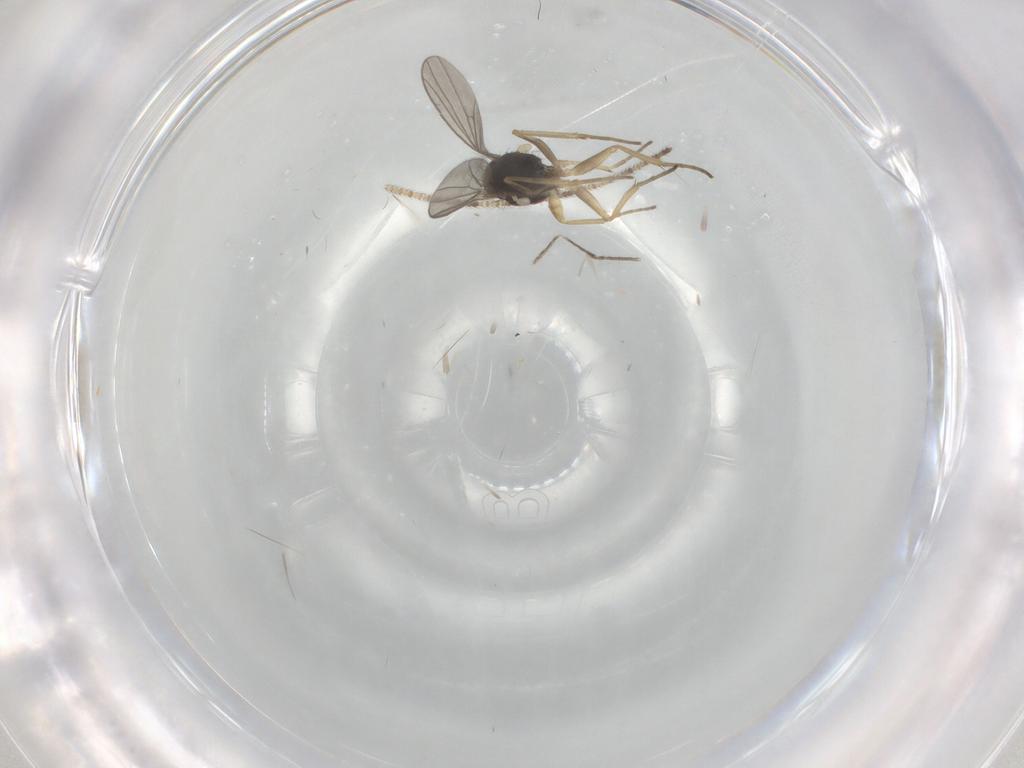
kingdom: Animalia
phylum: Arthropoda
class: Insecta
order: Diptera
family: Dolichopodidae
